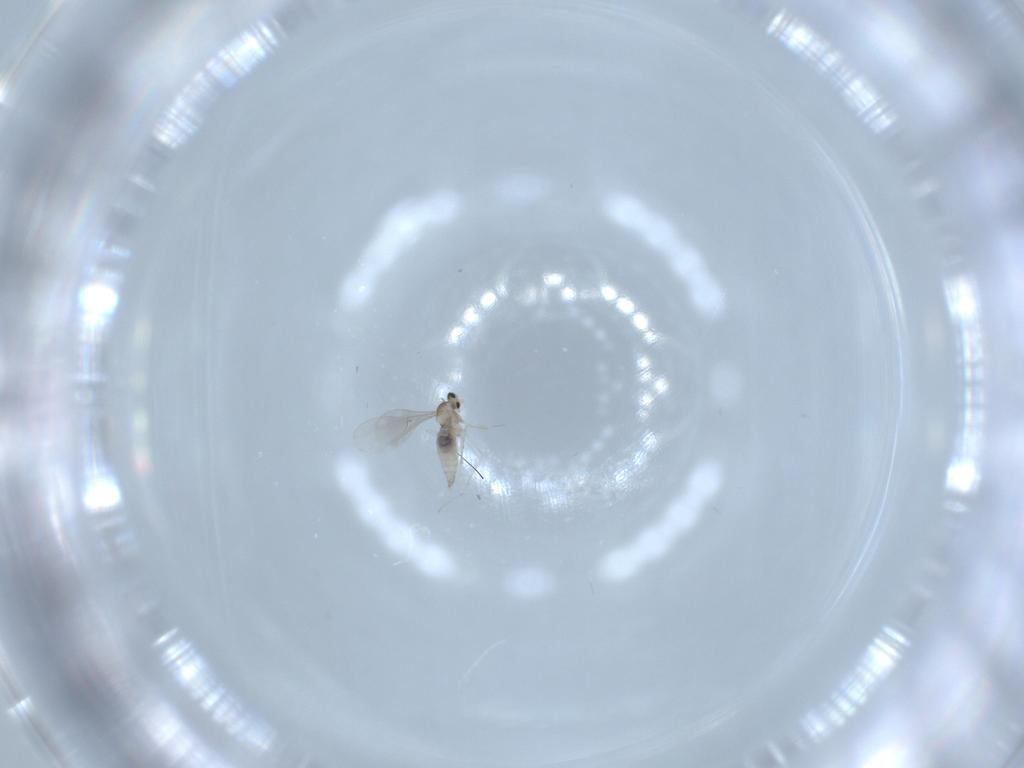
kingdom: Animalia
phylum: Arthropoda
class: Insecta
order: Diptera
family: Cecidomyiidae
